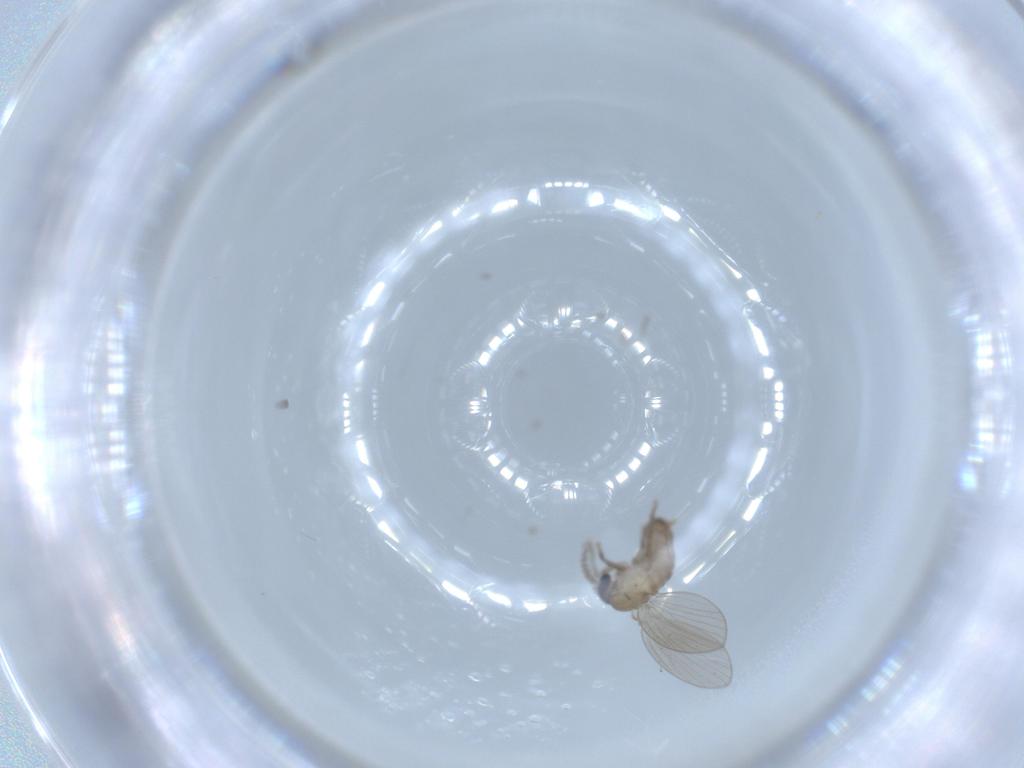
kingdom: Animalia
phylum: Arthropoda
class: Insecta
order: Diptera
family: Psychodidae
